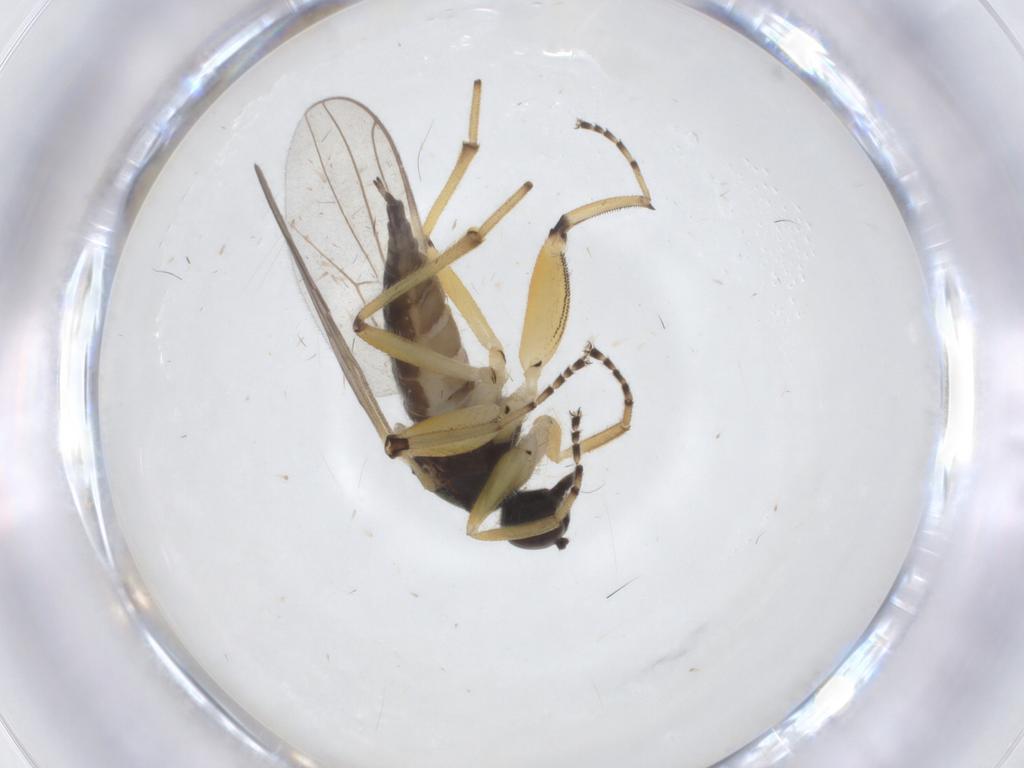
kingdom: Animalia
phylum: Arthropoda
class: Insecta
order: Diptera
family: Hybotidae
